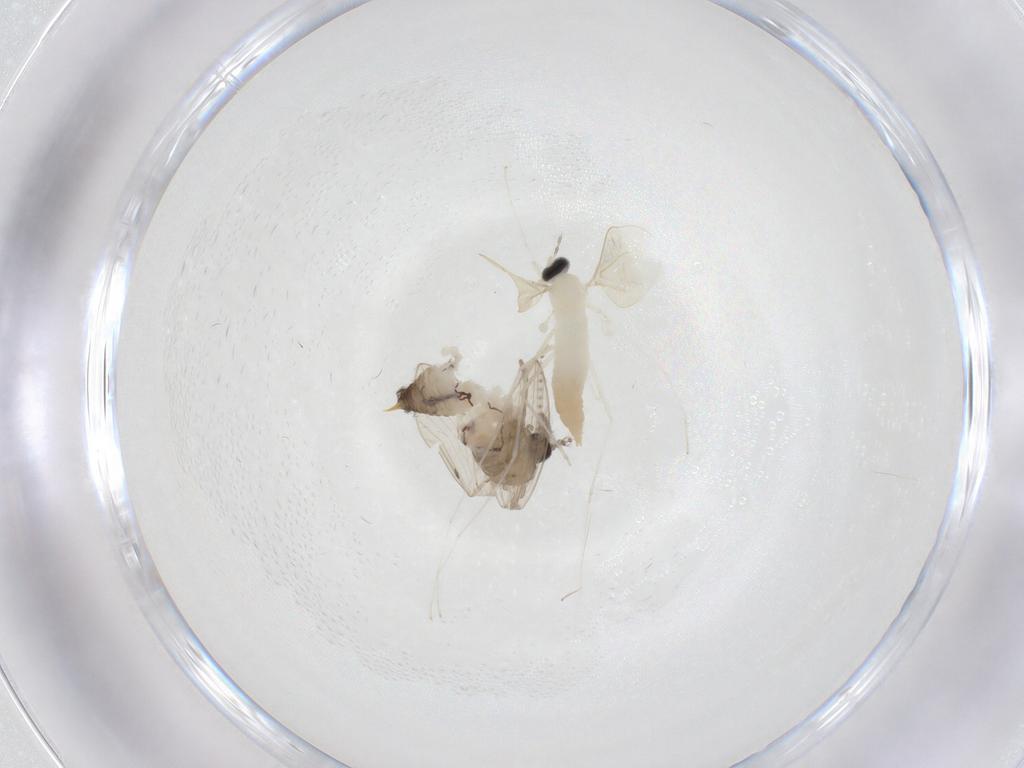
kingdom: Animalia
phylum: Arthropoda
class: Insecta
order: Diptera
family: Psychodidae
